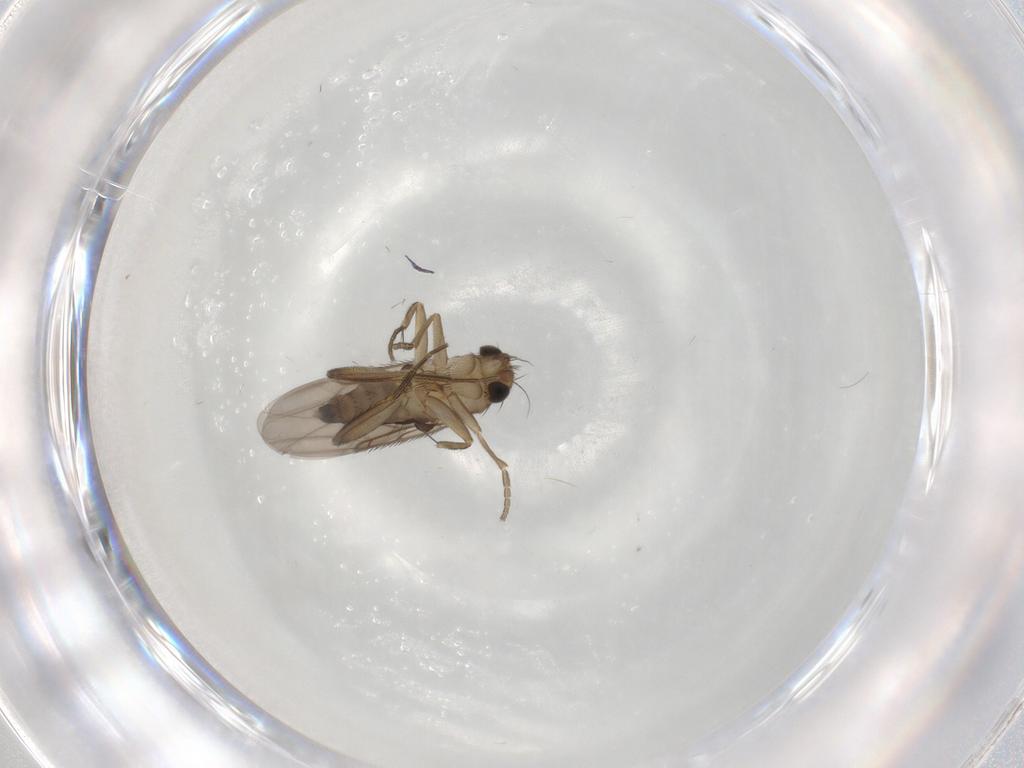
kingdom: Animalia
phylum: Arthropoda
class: Insecta
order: Diptera
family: Phoridae
